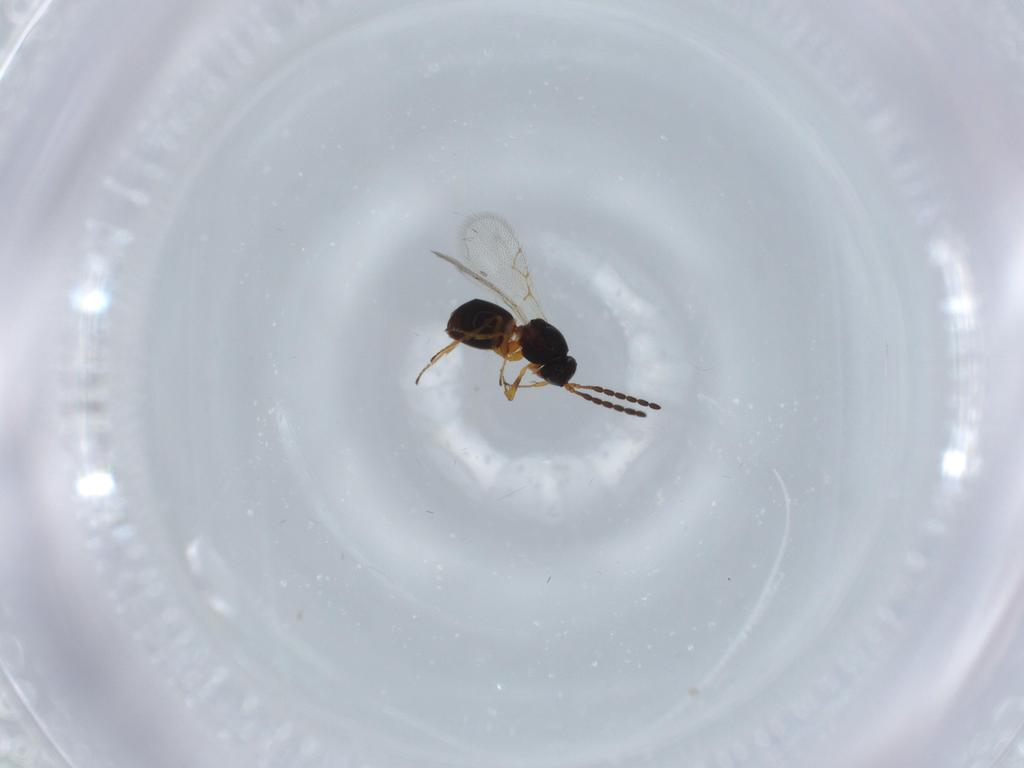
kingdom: Animalia
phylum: Arthropoda
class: Insecta
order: Hymenoptera
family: Figitidae
